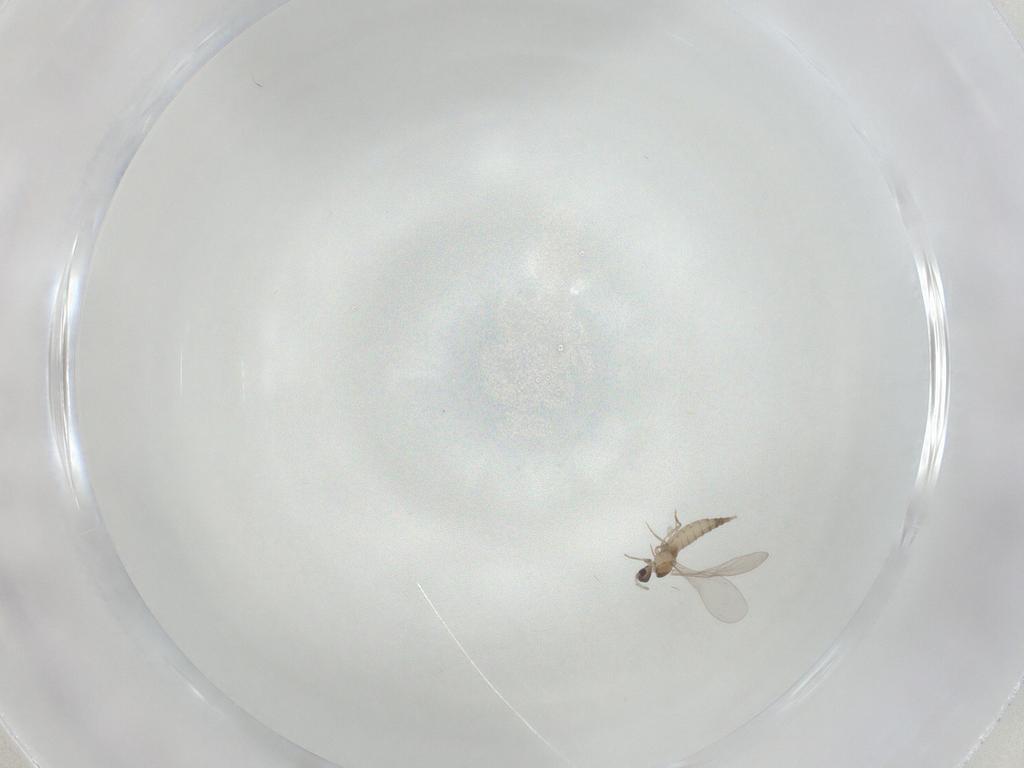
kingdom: Animalia
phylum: Arthropoda
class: Insecta
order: Diptera
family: Cecidomyiidae
